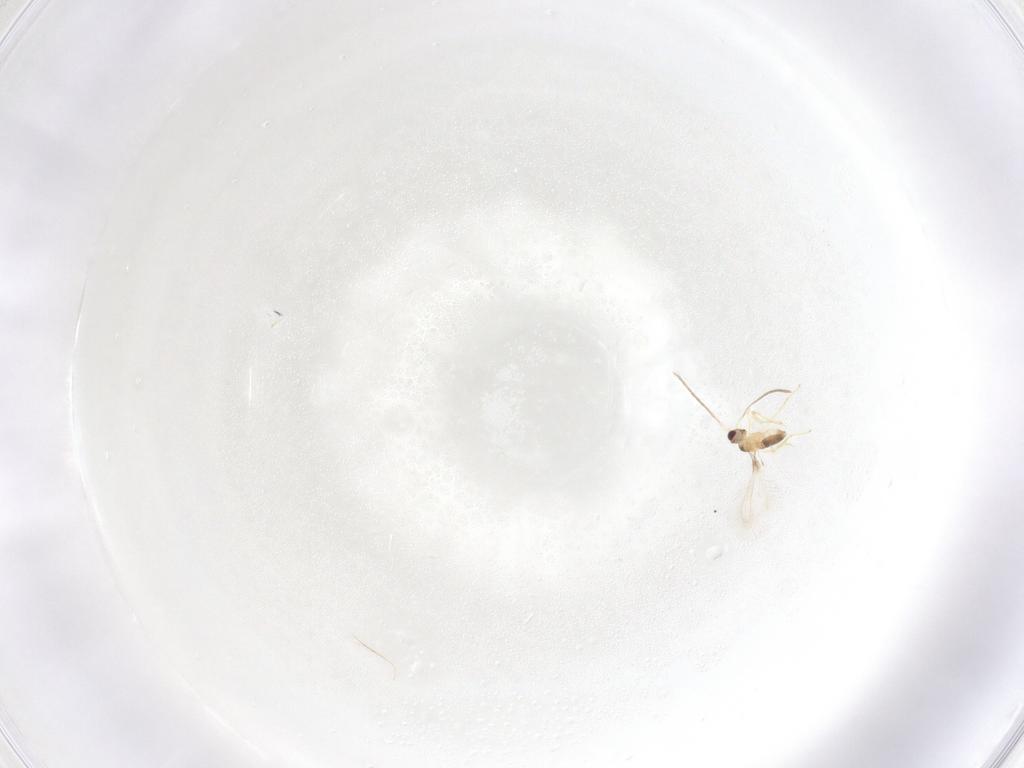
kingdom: Animalia
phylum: Arthropoda
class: Insecta
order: Hymenoptera
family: Mymaridae
